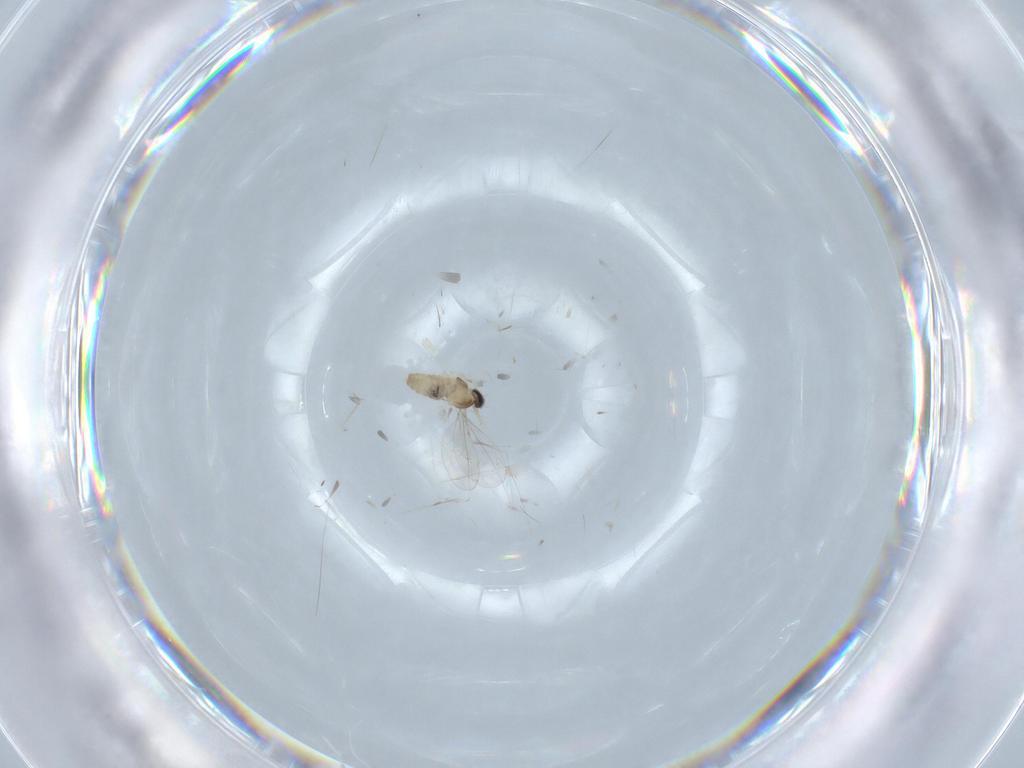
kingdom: Animalia
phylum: Arthropoda
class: Insecta
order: Diptera
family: Cecidomyiidae
